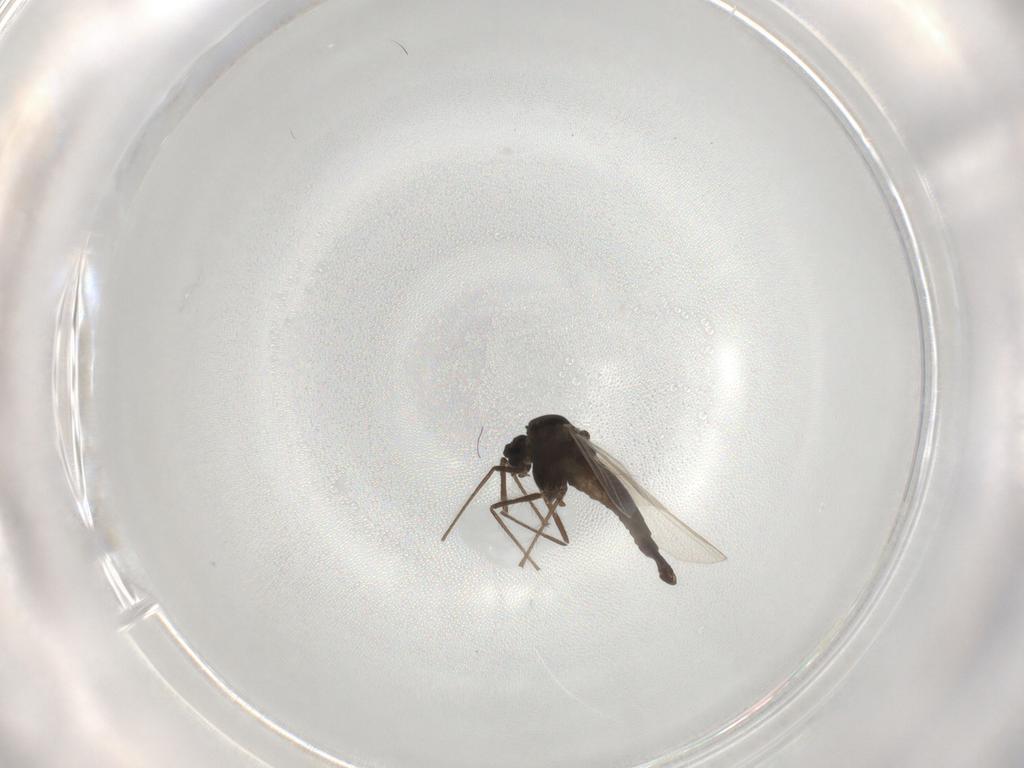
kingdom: Animalia
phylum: Arthropoda
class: Insecta
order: Diptera
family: Chironomidae
